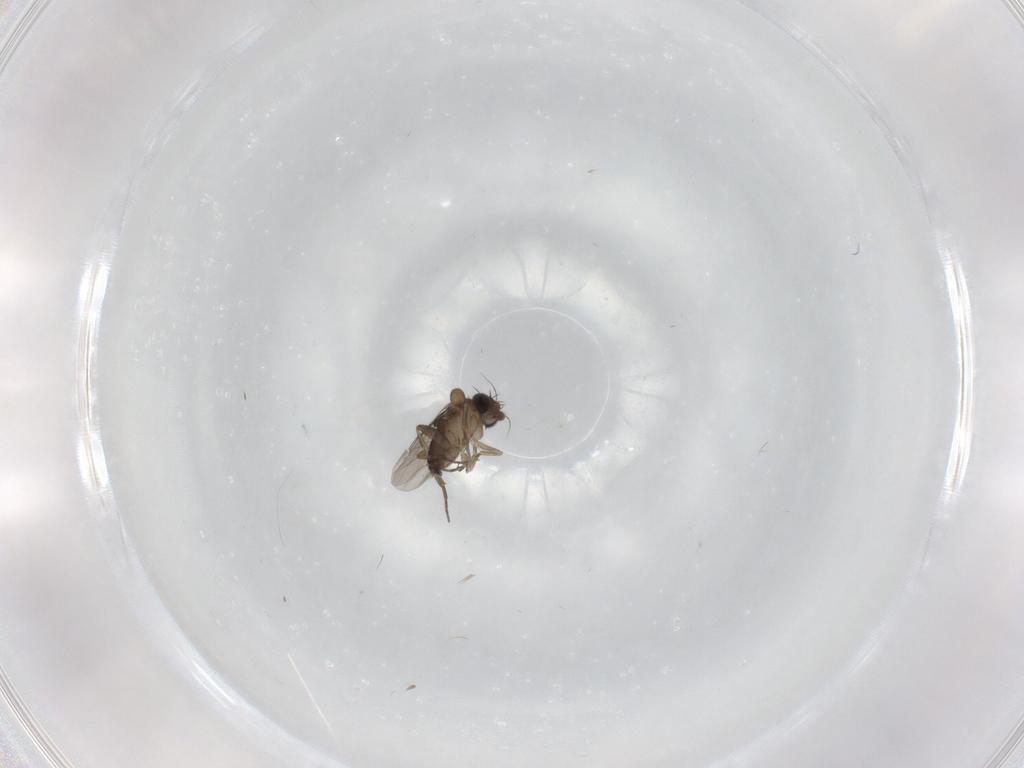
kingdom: Animalia
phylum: Arthropoda
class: Insecta
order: Diptera
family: Phoridae
